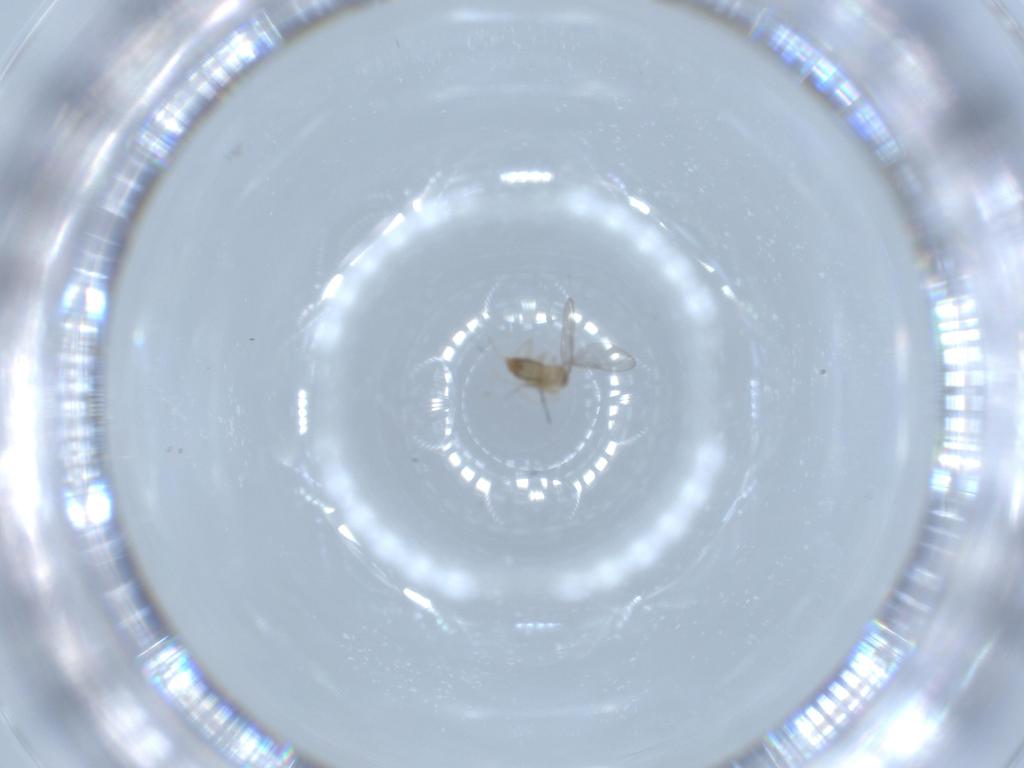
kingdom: Animalia
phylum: Arthropoda
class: Insecta
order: Diptera
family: Cecidomyiidae
